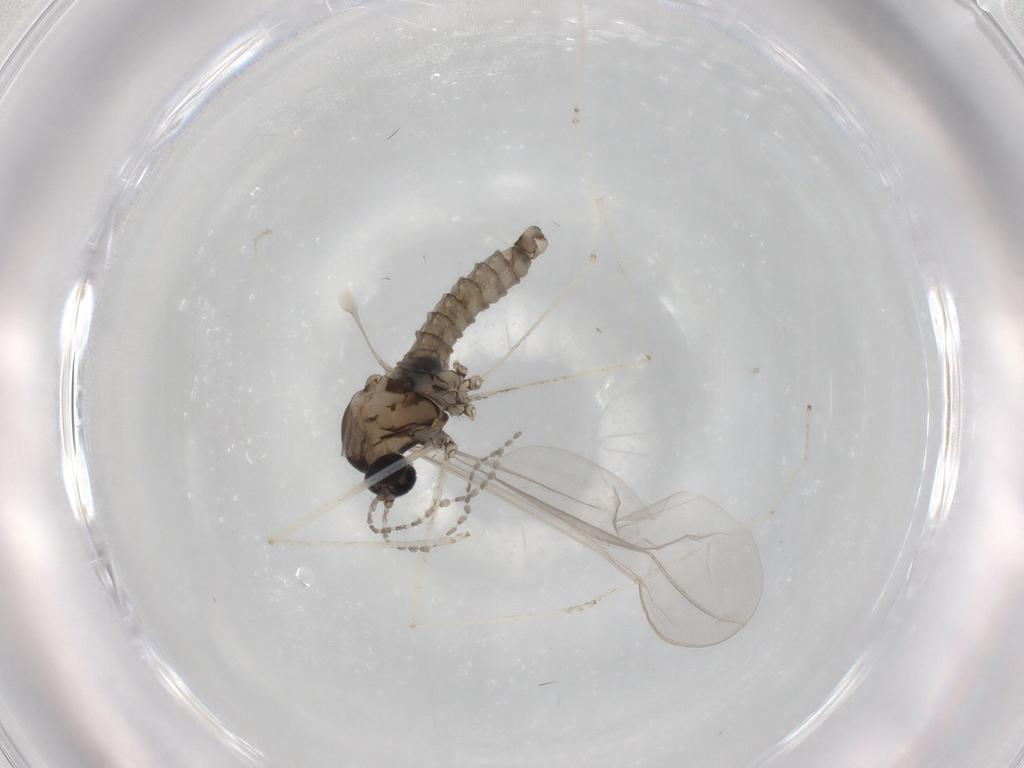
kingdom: Animalia
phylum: Arthropoda
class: Insecta
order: Diptera
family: Cecidomyiidae
